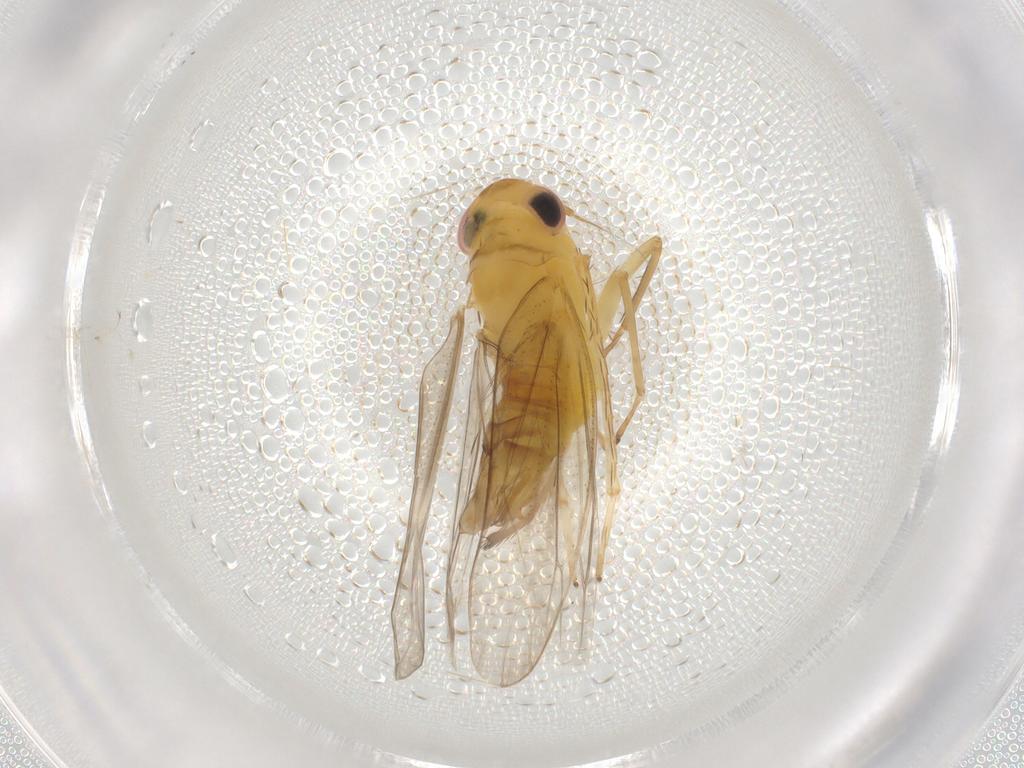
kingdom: Animalia
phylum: Arthropoda
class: Insecta
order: Hemiptera
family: Cicadellidae
